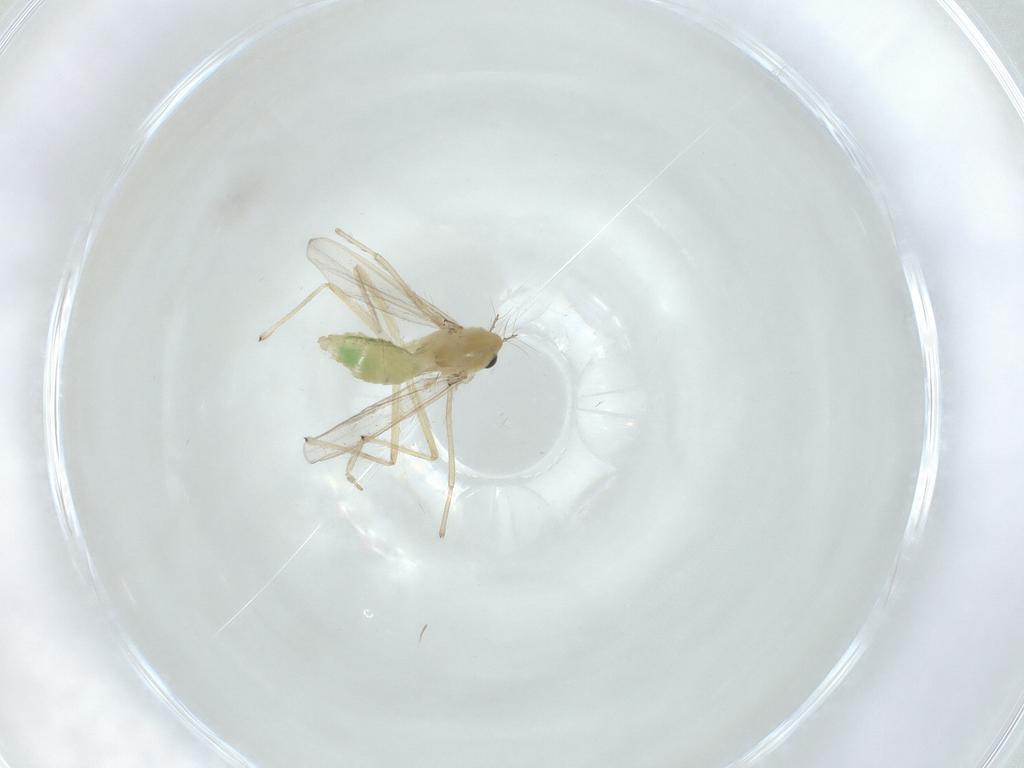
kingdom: Animalia
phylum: Arthropoda
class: Insecta
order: Diptera
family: Chironomidae
